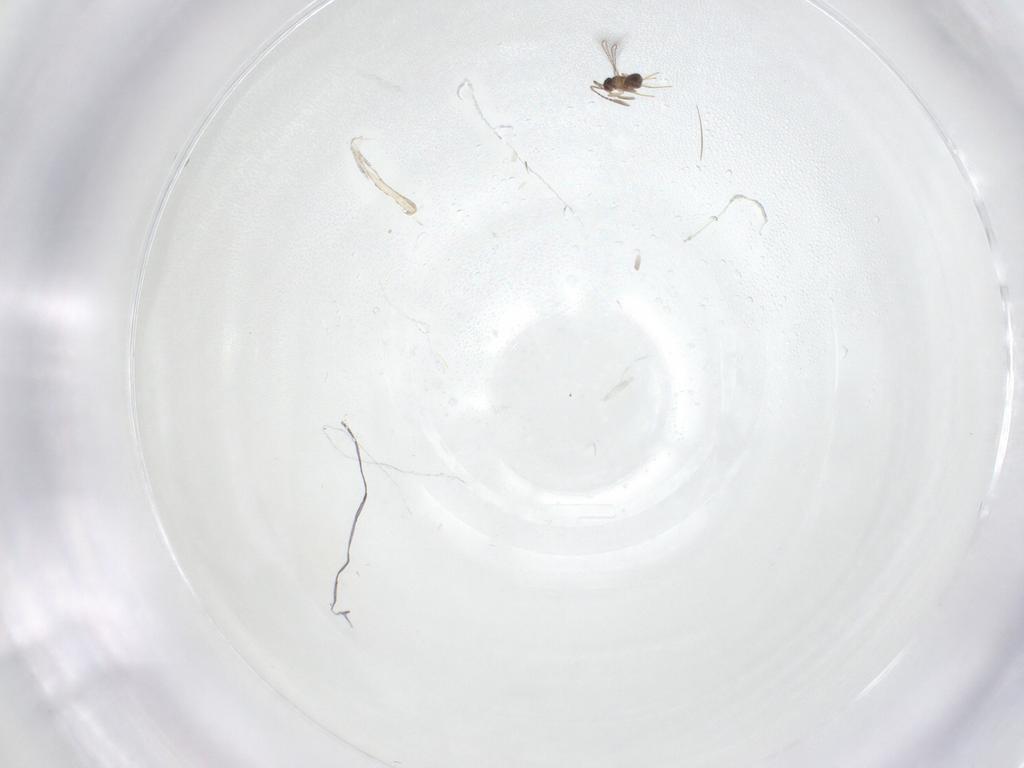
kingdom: Animalia
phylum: Arthropoda
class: Insecta
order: Hymenoptera
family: Mymaridae
